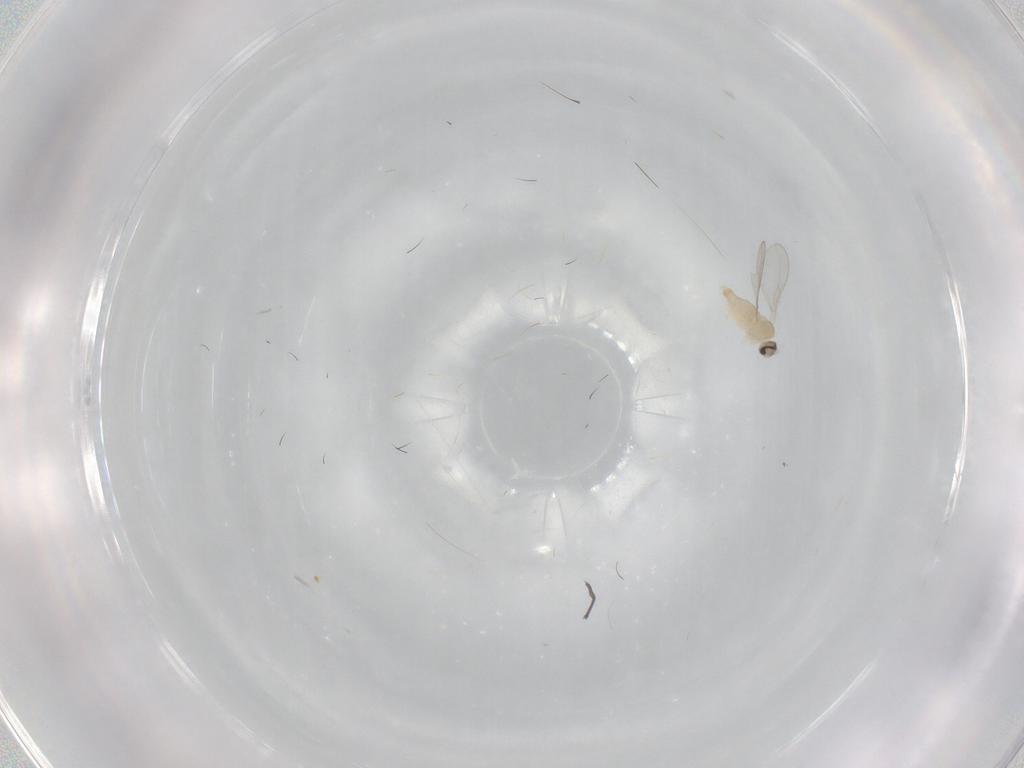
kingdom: Animalia
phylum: Arthropoda
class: Insecta
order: Diptera
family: Cecidomyiidae
